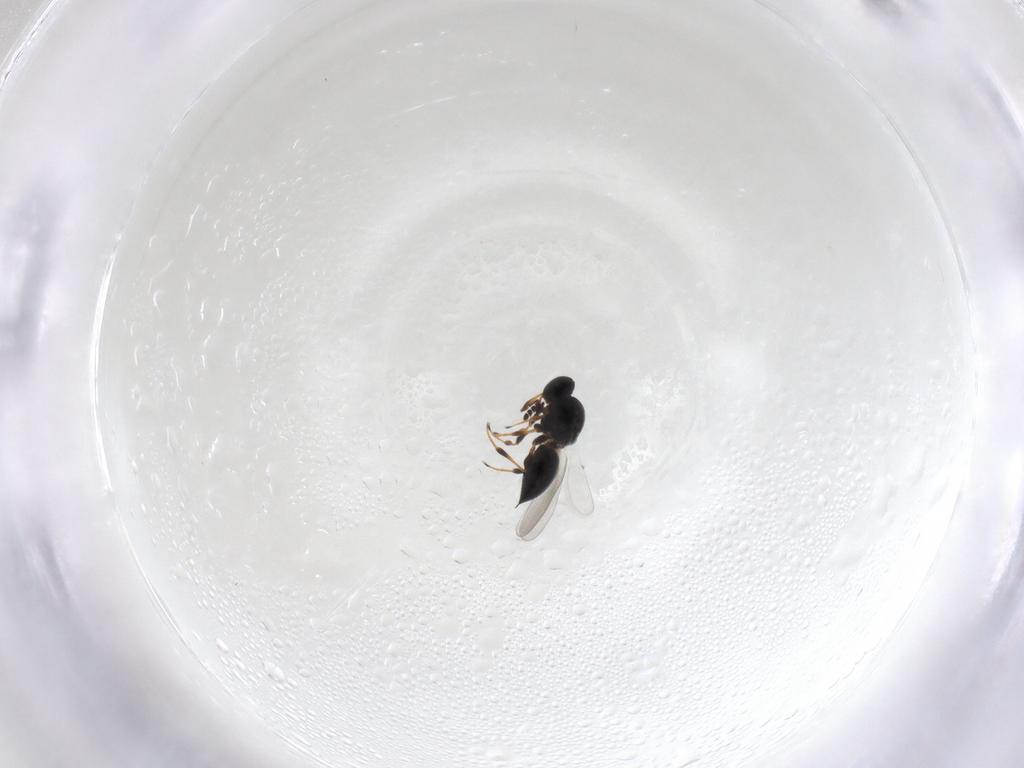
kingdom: Animalia
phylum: Arthropoda
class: Insecta
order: Hymenoptera
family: Platygastridae
